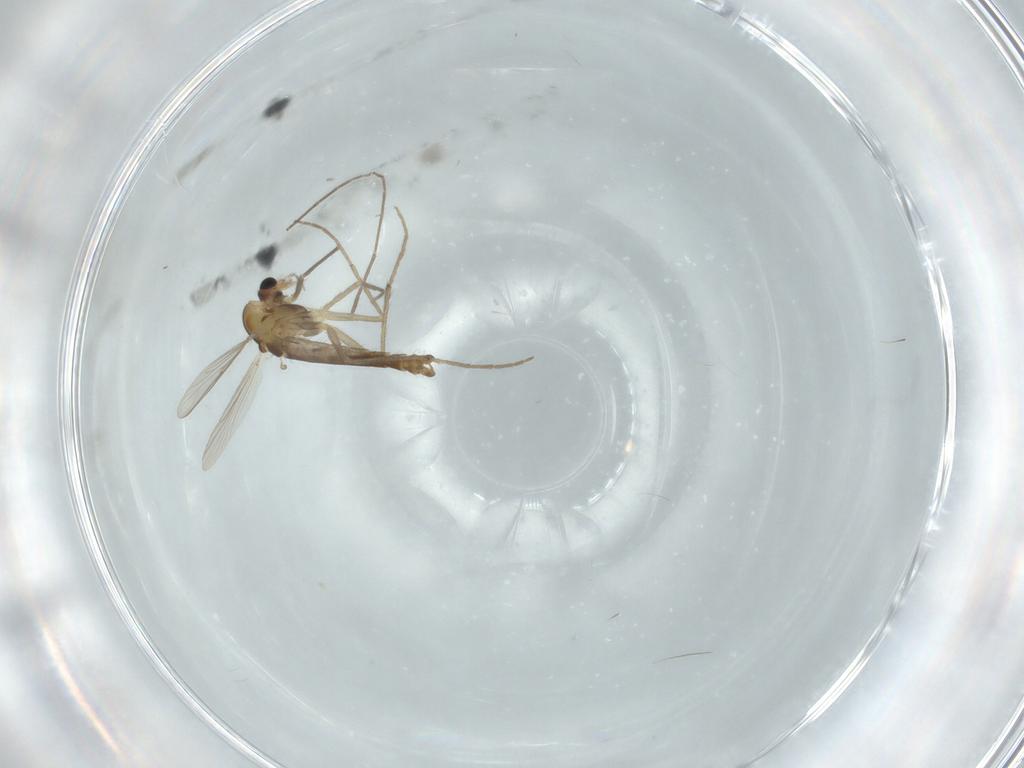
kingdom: Animalia
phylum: Arthropoda
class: Insecta
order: Diptera
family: Chironomidae
